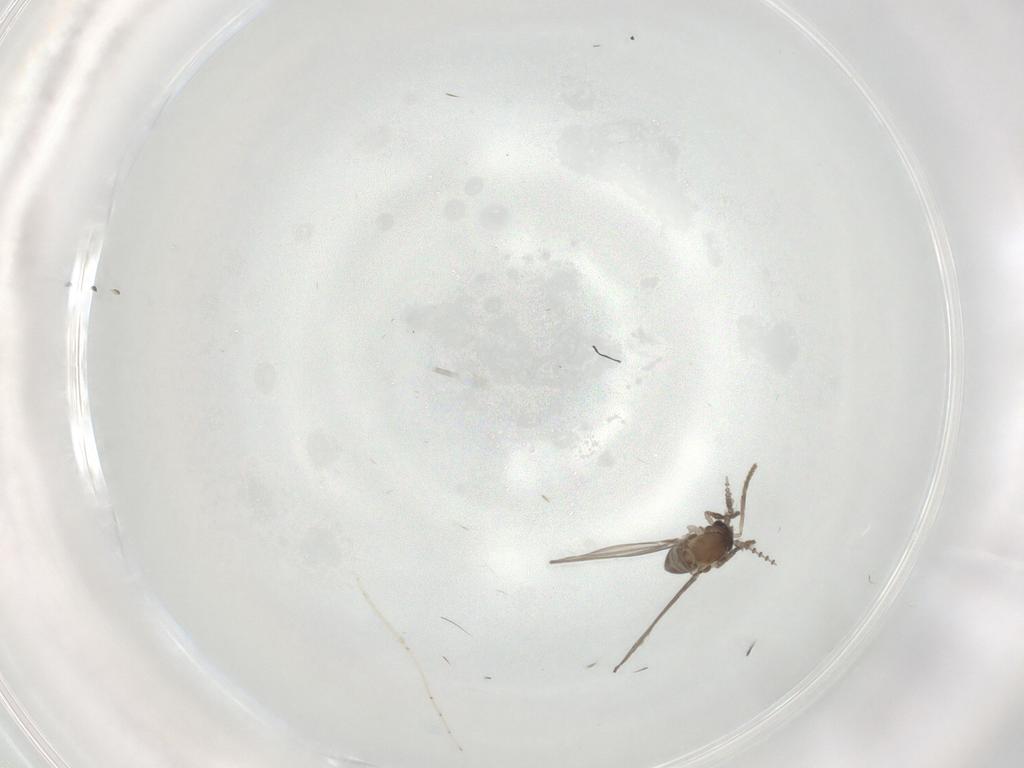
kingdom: Animalia
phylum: Arthropoda
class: Insecta
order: Diptera
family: Psychodidae
